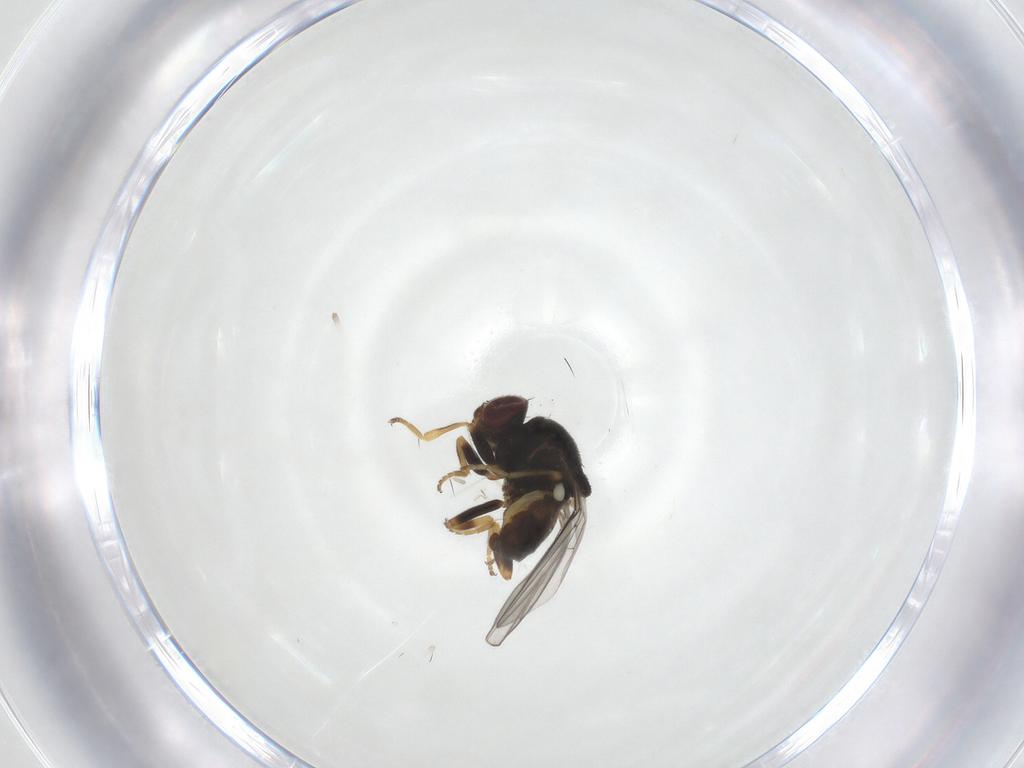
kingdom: Animalia
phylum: Arthropoda
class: Insecta
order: Diptera
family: Chloropidae
